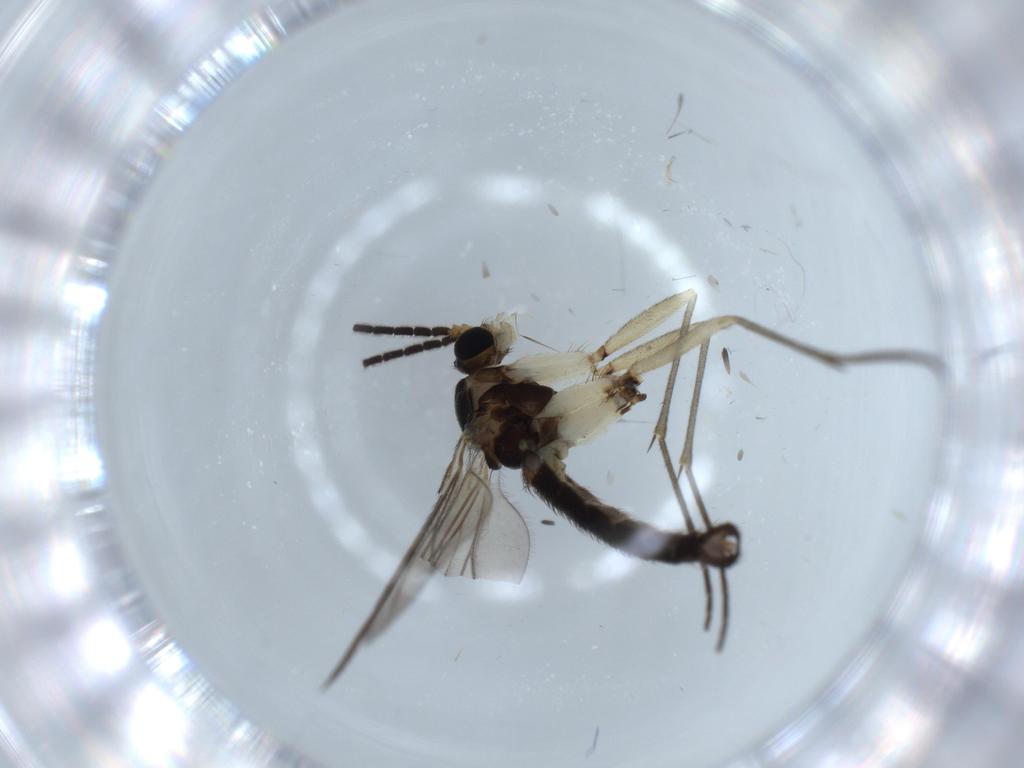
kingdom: Animalia
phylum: Arthropoda
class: Insecta
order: Diptera
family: Sciaridae
